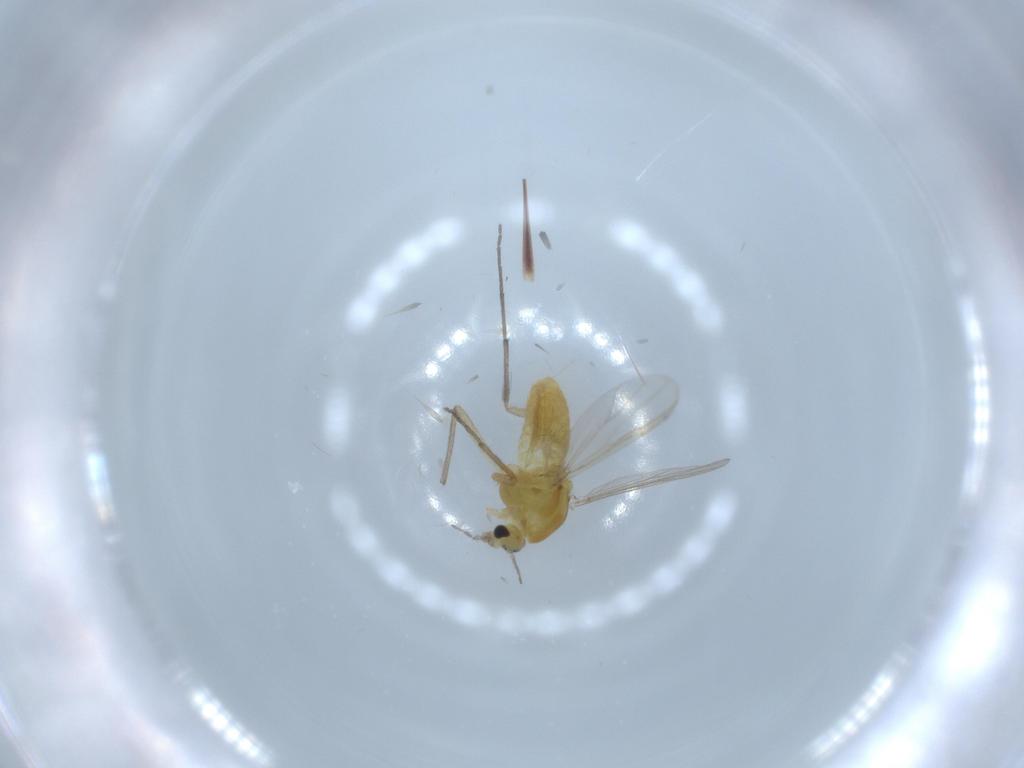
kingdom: Animalia
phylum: Arthropoda
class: Insecta
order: Diptera
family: Chironomidae
